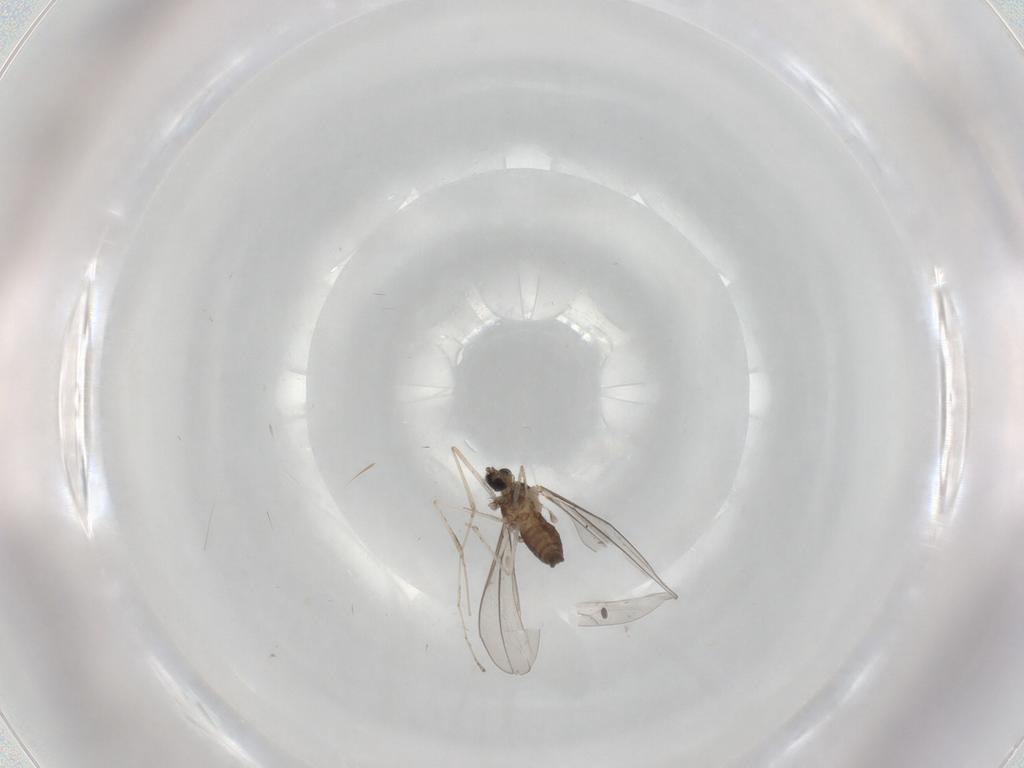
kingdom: Animalia
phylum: Arthropoda
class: Insecta
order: Diptera
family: Cecidomyiidae
